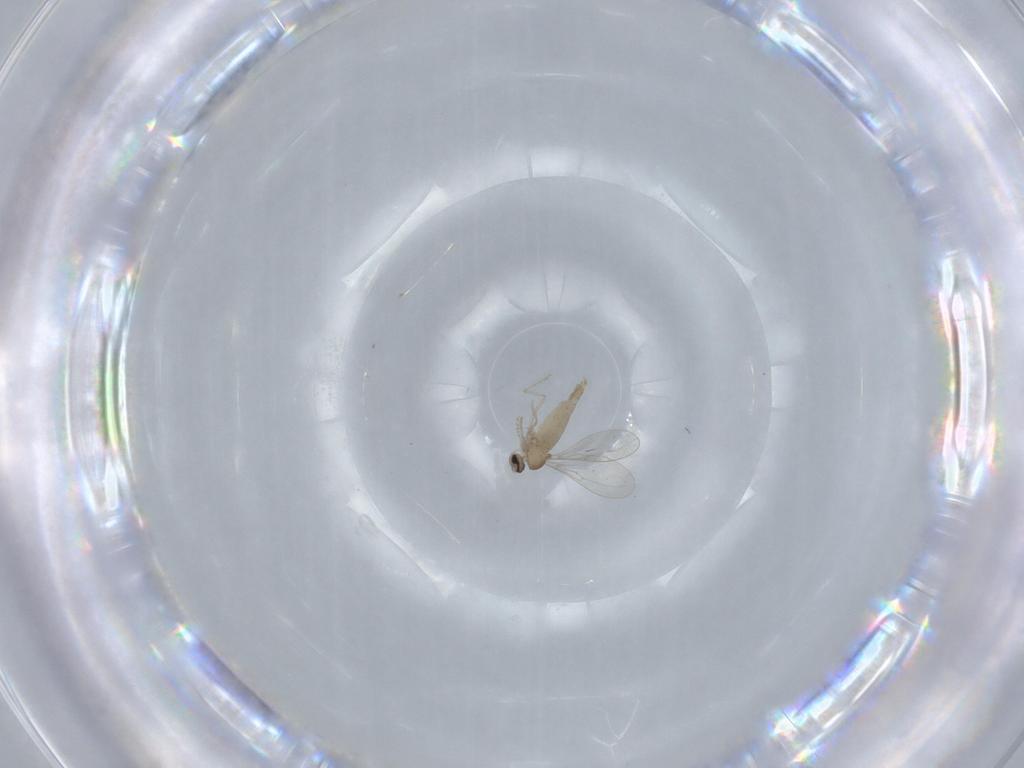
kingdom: Animalia
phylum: Arthropoda
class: Insecta
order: Diptera
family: Cecidomyiidae
